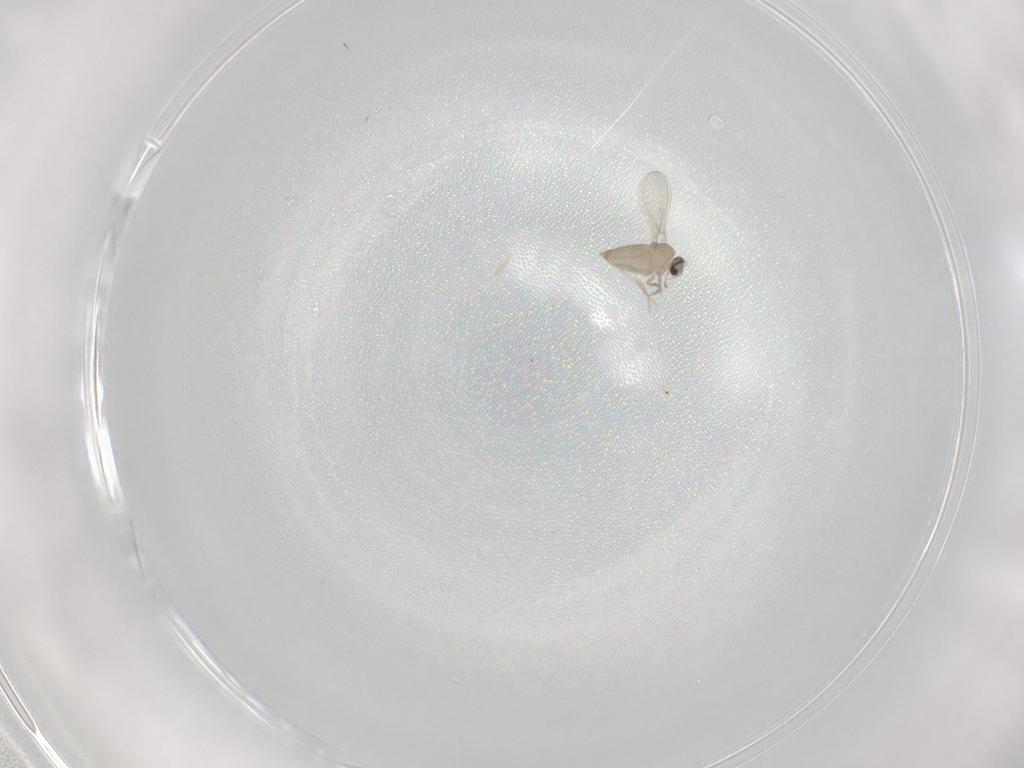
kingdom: Animalia
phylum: Arthropoda
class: Insecta
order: Diptera
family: Cecidomyiidae
